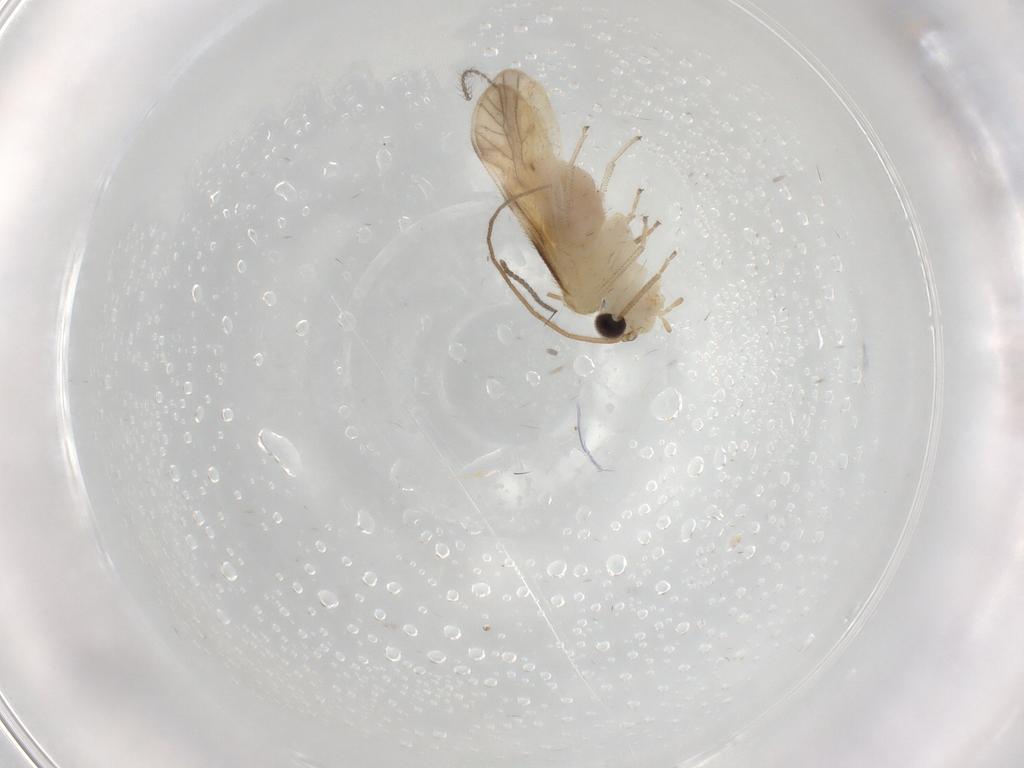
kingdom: Animalia
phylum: Arthropoda
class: Insecta
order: Psocodea
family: Caeciliusidae
